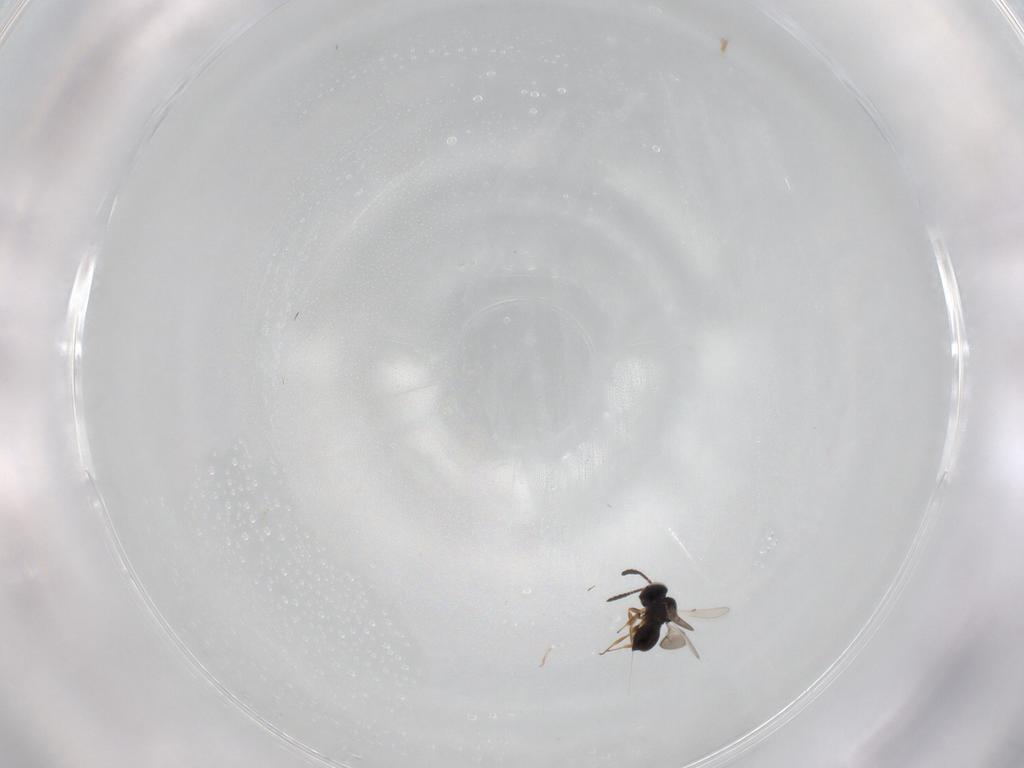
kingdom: Animalia
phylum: Arthropoda
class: Insecta
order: Hymenoptera
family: Scelionidae
